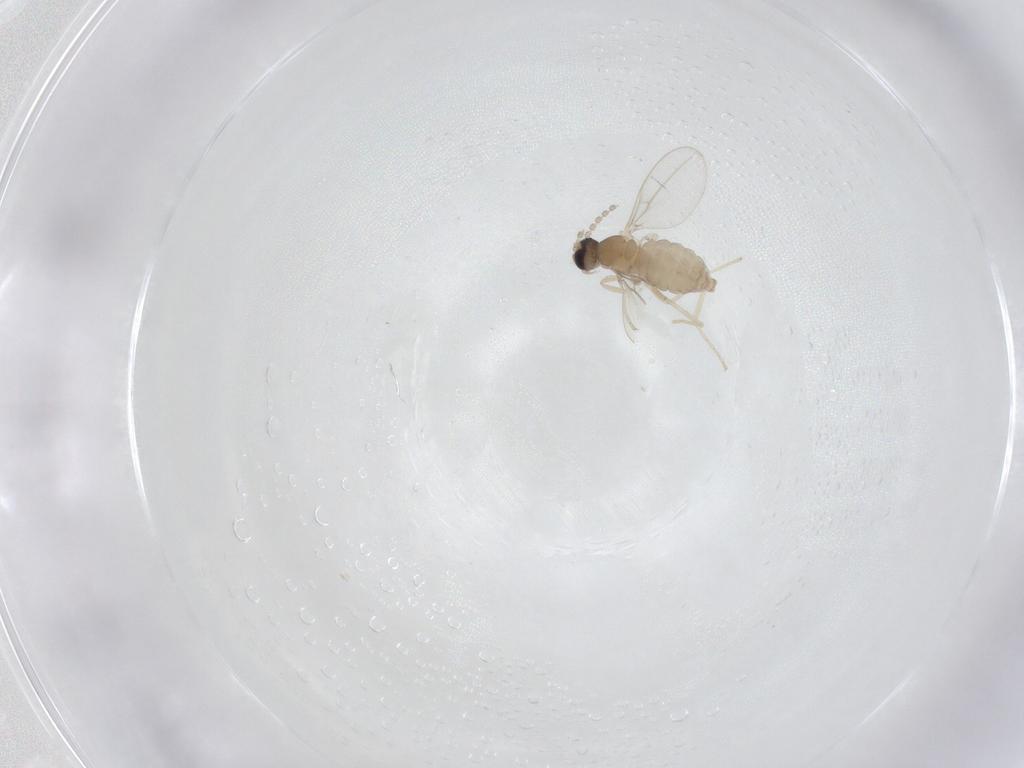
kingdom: Animalia
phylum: Arthropoda
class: Insecta
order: Diptera
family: Cecidomyiidae
